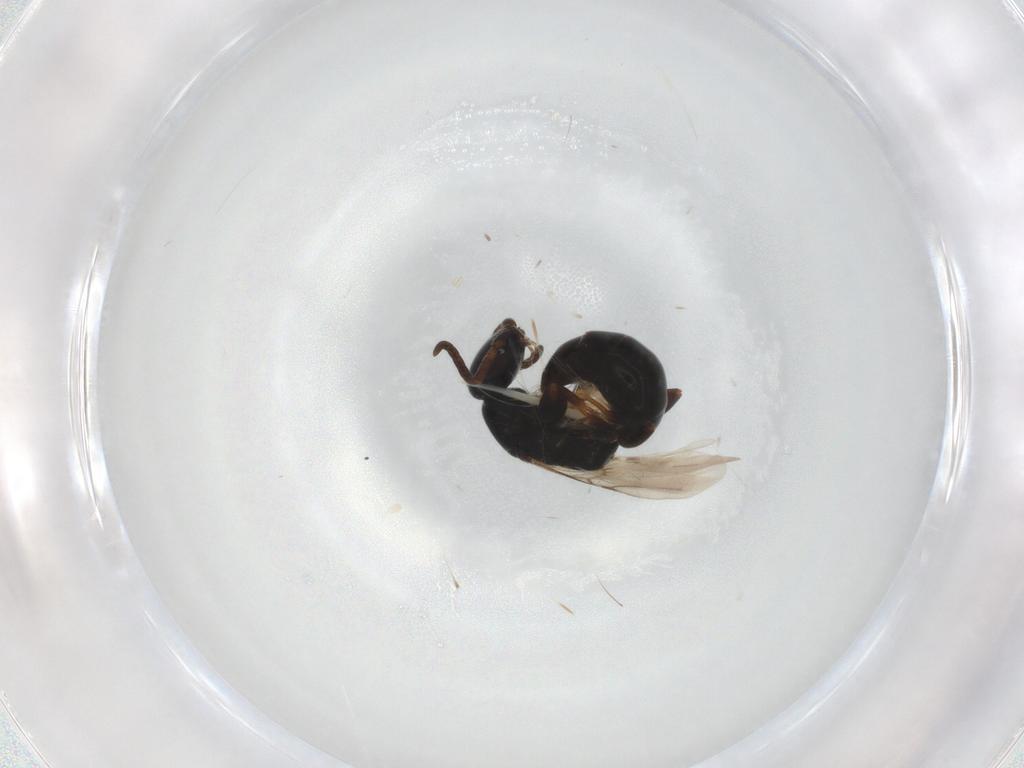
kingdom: Animalia
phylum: Arthropoda
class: Insecta
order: Hymenoptera
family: Bethylidae
